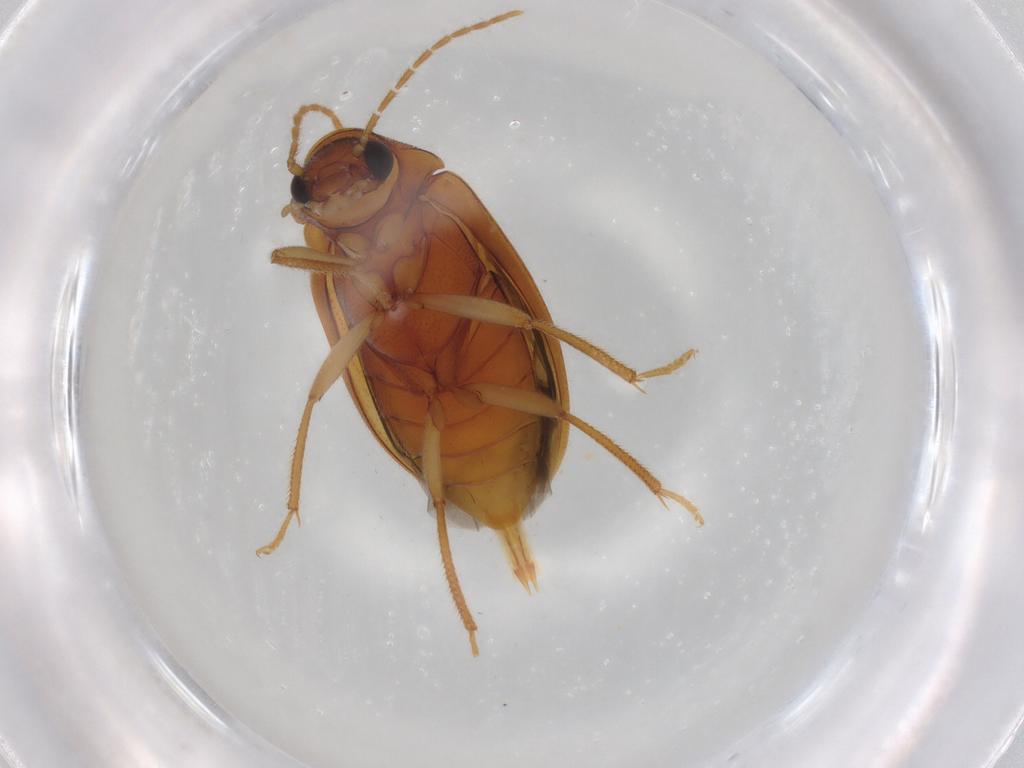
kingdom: Animalia
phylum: Arthropoda
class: Insecta
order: Coleoptera
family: Ptilodactylidae
